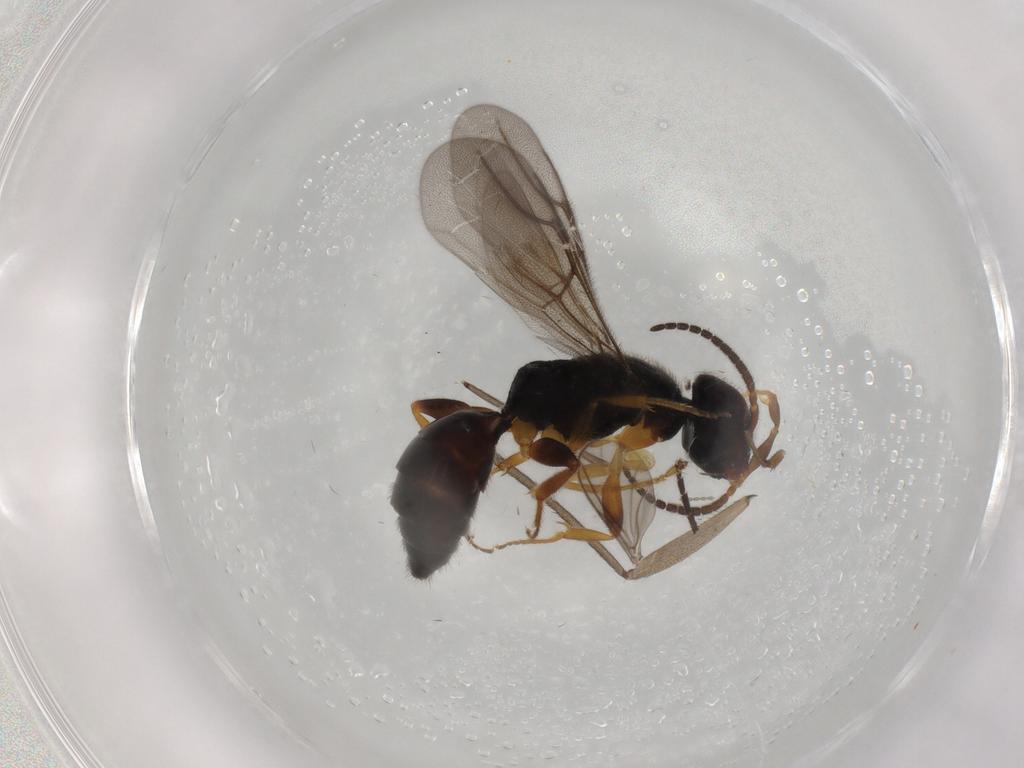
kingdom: Animalia
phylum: Arthropoda
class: Insecta
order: Hymenoptera
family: Bethylidae
